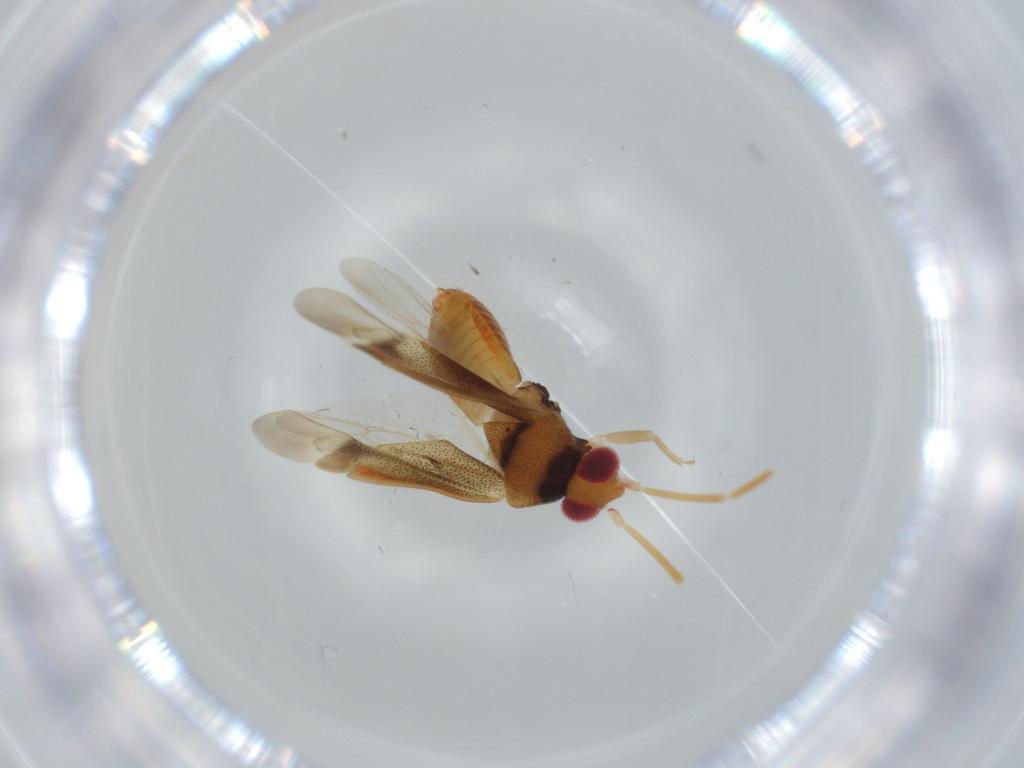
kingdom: Animalia
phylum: Arthropoda
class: Insecta
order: Hemiptera
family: Miridae
